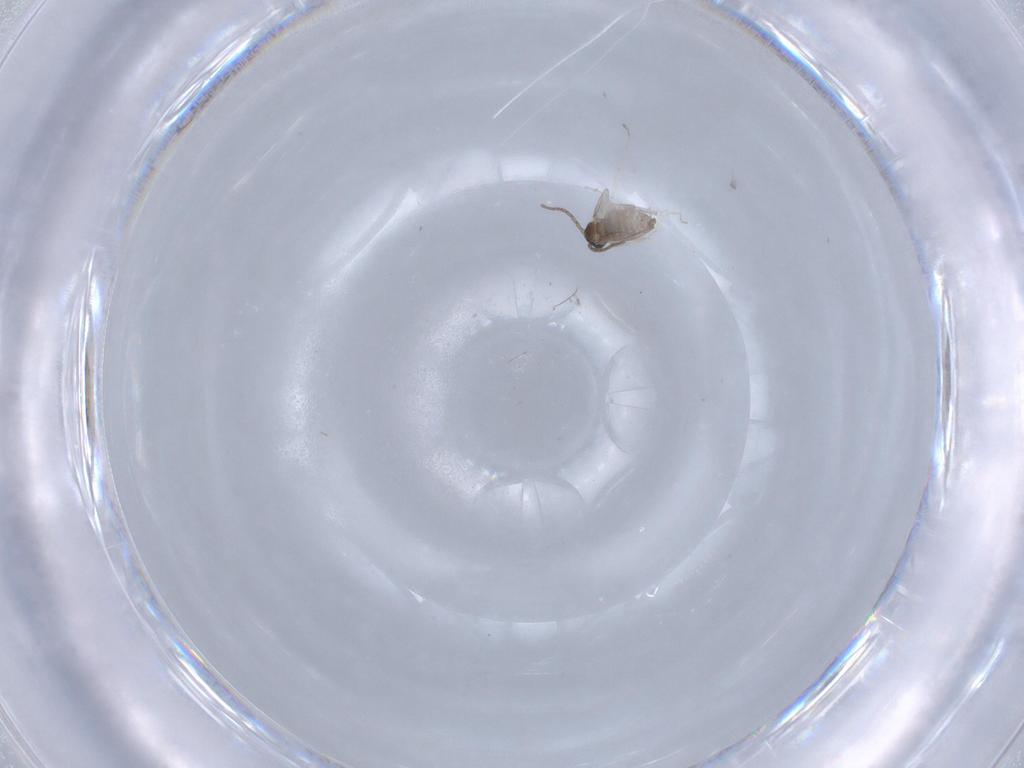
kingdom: Animalia
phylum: Arthropoda
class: Insecta
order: Diptera
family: Cecidomyiidae
